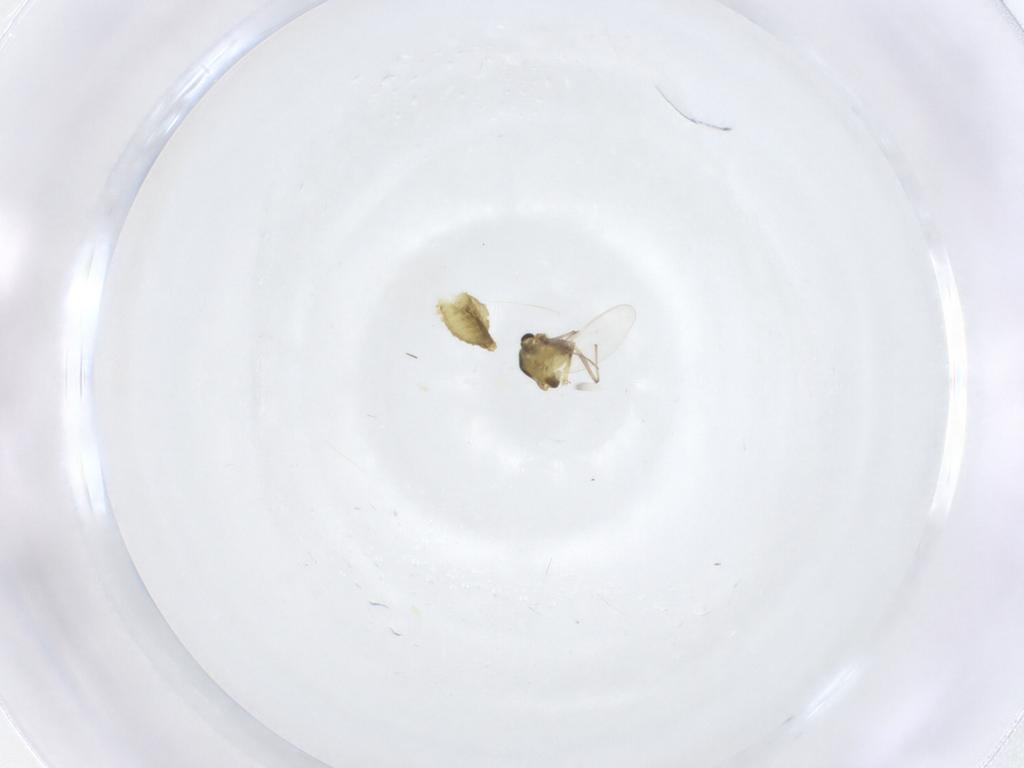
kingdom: Animalia
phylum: Arthropoda
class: Insecta
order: Diptera
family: Chironomidae
